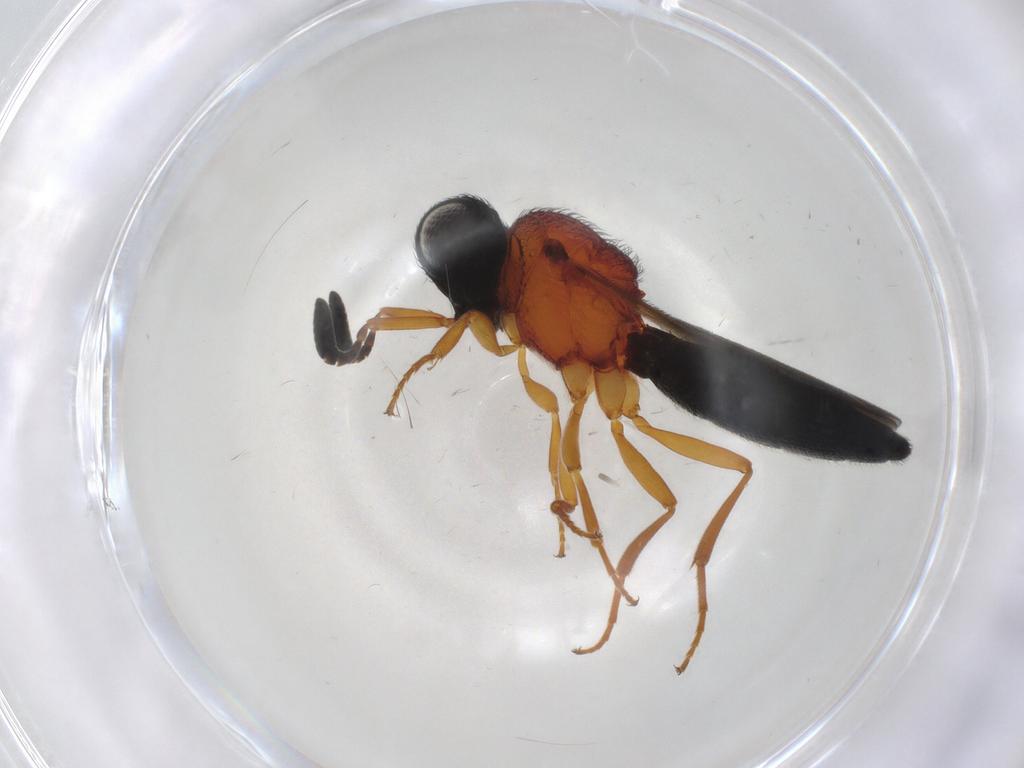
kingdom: Animalia
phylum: Arthropoda
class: Insecta
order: Hymenoptera
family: Scelionidae
